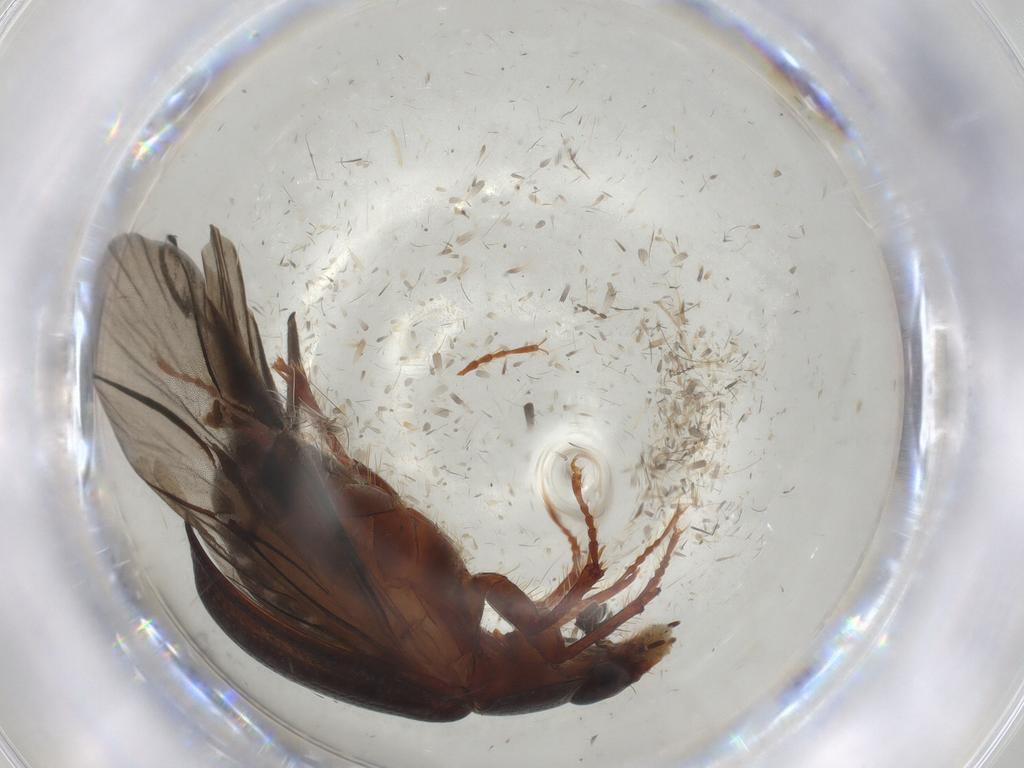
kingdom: Animalia
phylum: Arthropoda
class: Insecta
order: Coleoptera
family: Hybosoridae
